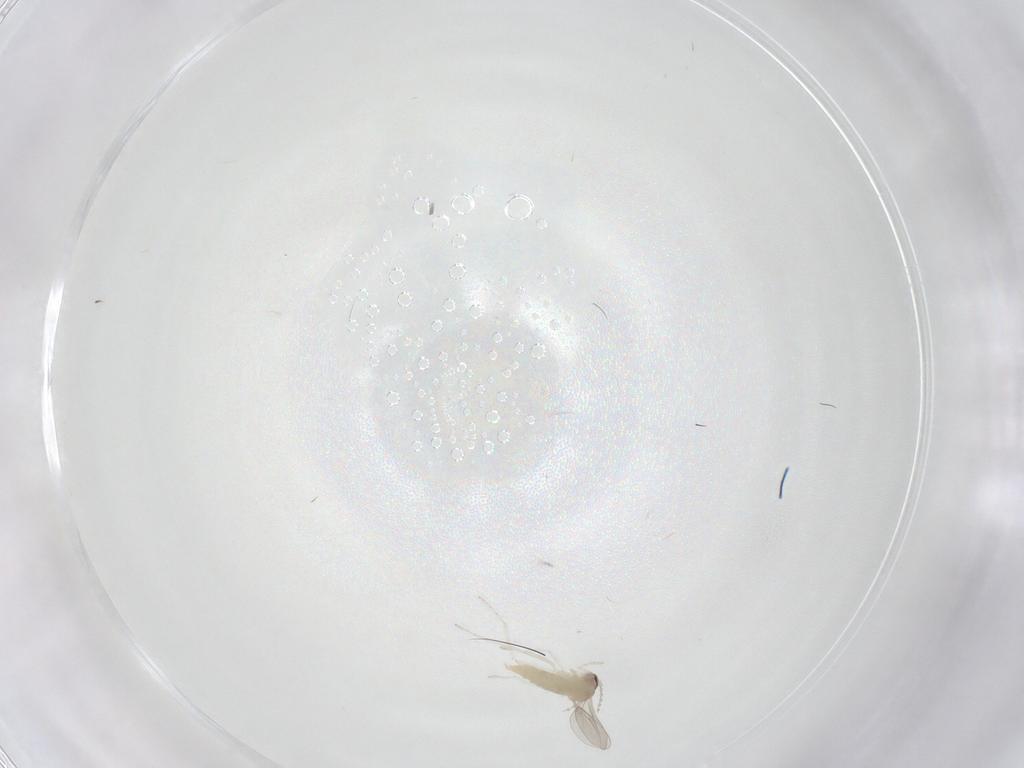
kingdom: Animalia
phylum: Arthropoda
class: Insecta
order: Diptera
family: Cecidomyiidae
